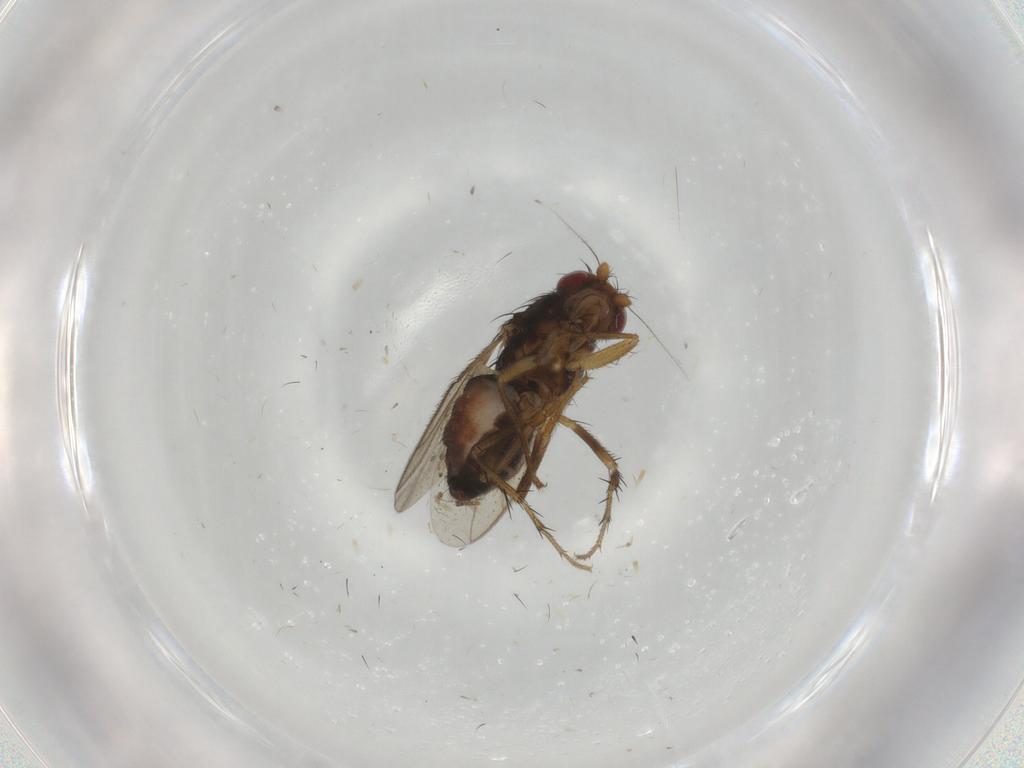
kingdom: Animalia
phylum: Arthropoda
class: Insecta
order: Diptera
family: Sphaeroceridae
